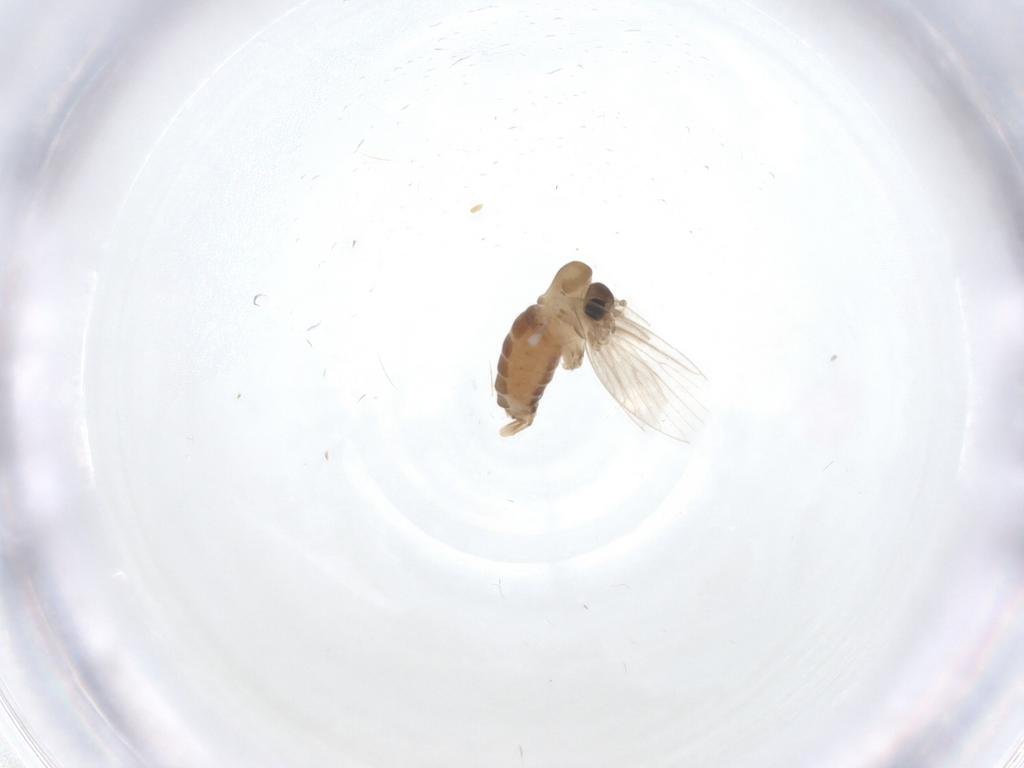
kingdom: Animalia
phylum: Arthropoda
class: Insecta
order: Diptera
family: Psychodidae
